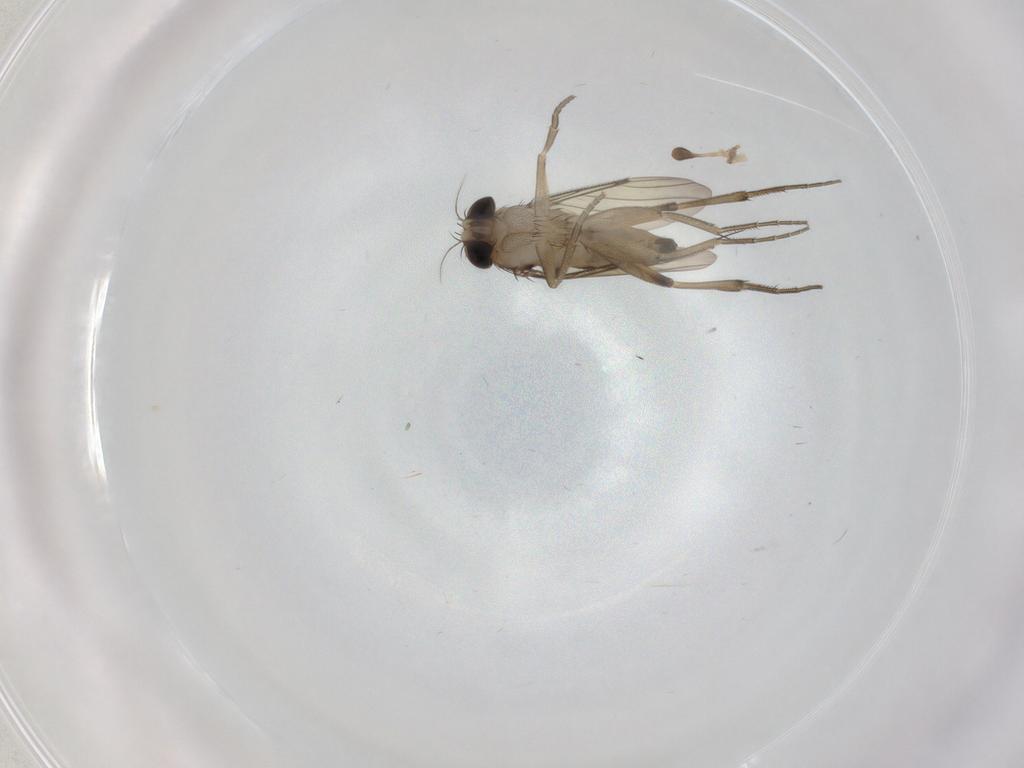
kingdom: Animalia
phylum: Arthropoda
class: Insecta
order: Diptera
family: Phoridae
